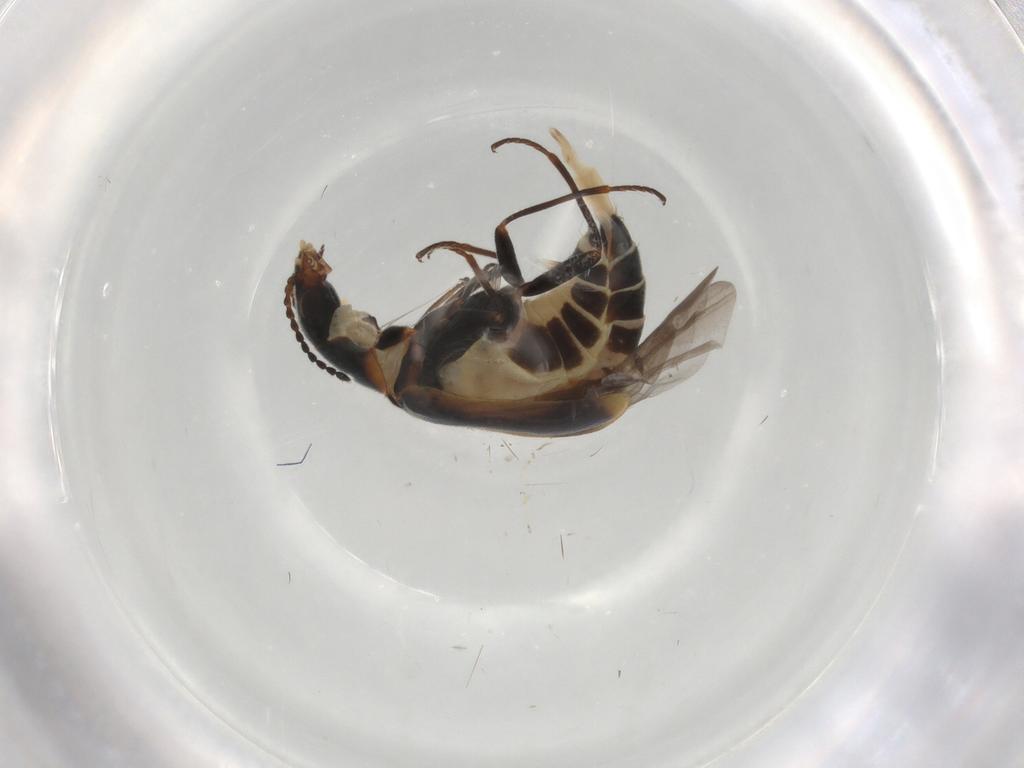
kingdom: Animalia
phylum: Arthropoda
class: Insecta
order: Coleoptera
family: Melyridae
